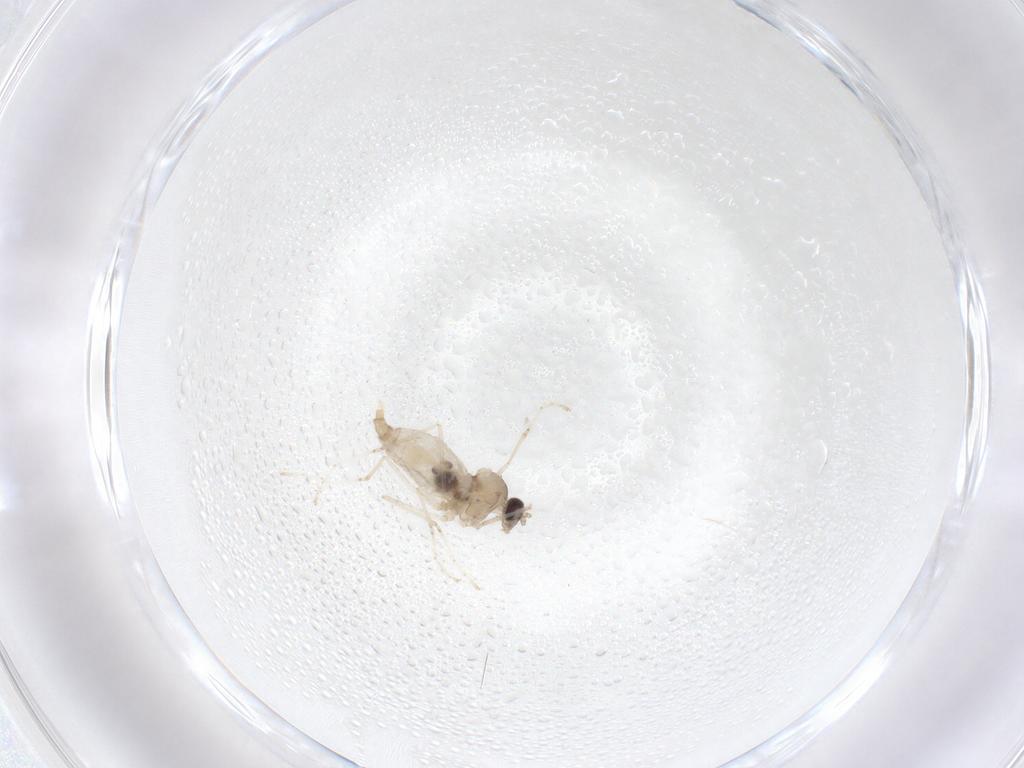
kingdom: Animalia
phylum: Arthropoda
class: Insecta
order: Diptera
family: Cecidomyiidae
